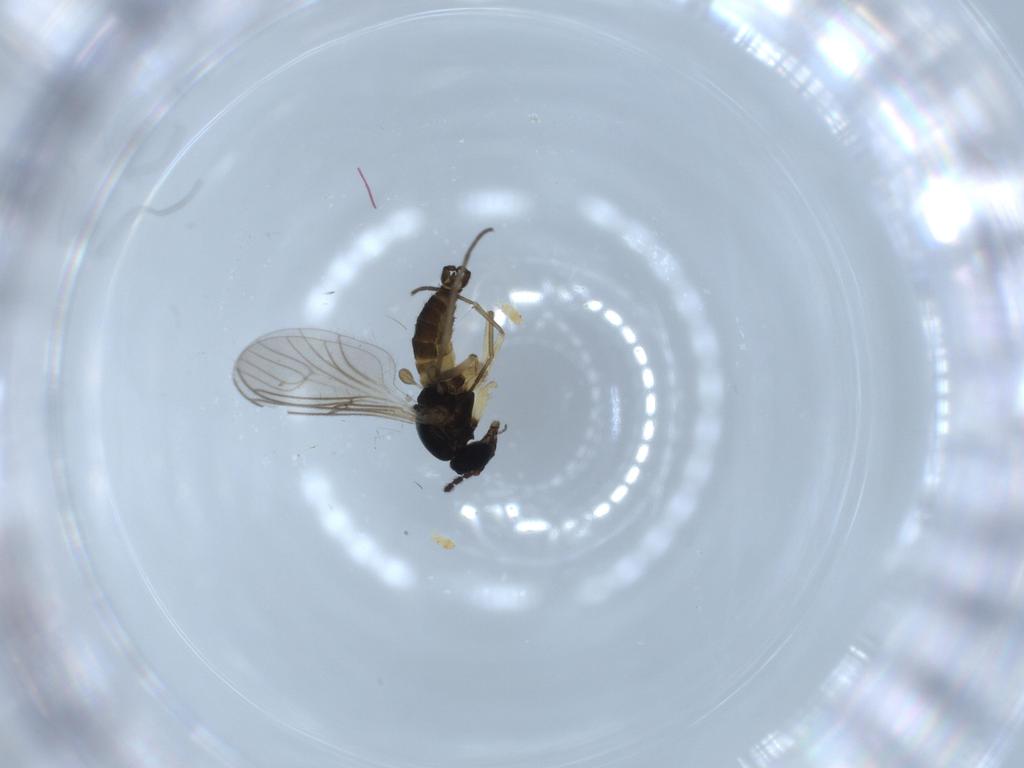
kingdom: Animalia
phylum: Arthropoda
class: Insecta
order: Diptera
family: Sciaridae
